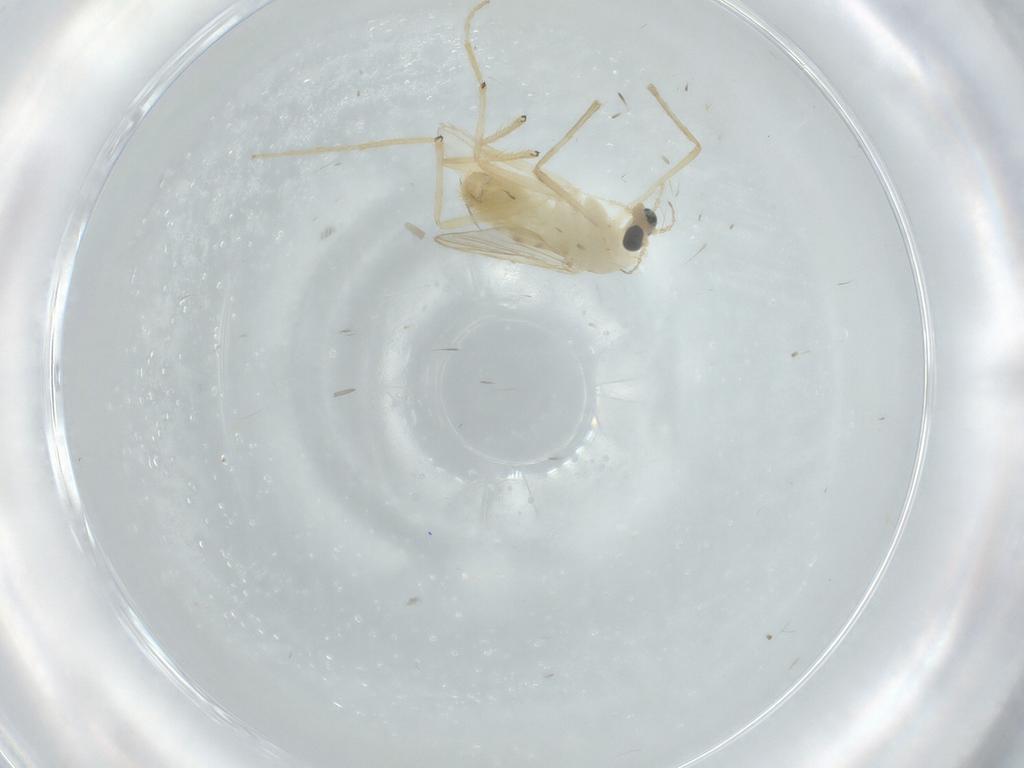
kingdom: Animalia
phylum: Arthropoda
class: Insecta
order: Diptera
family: Chironomidae
